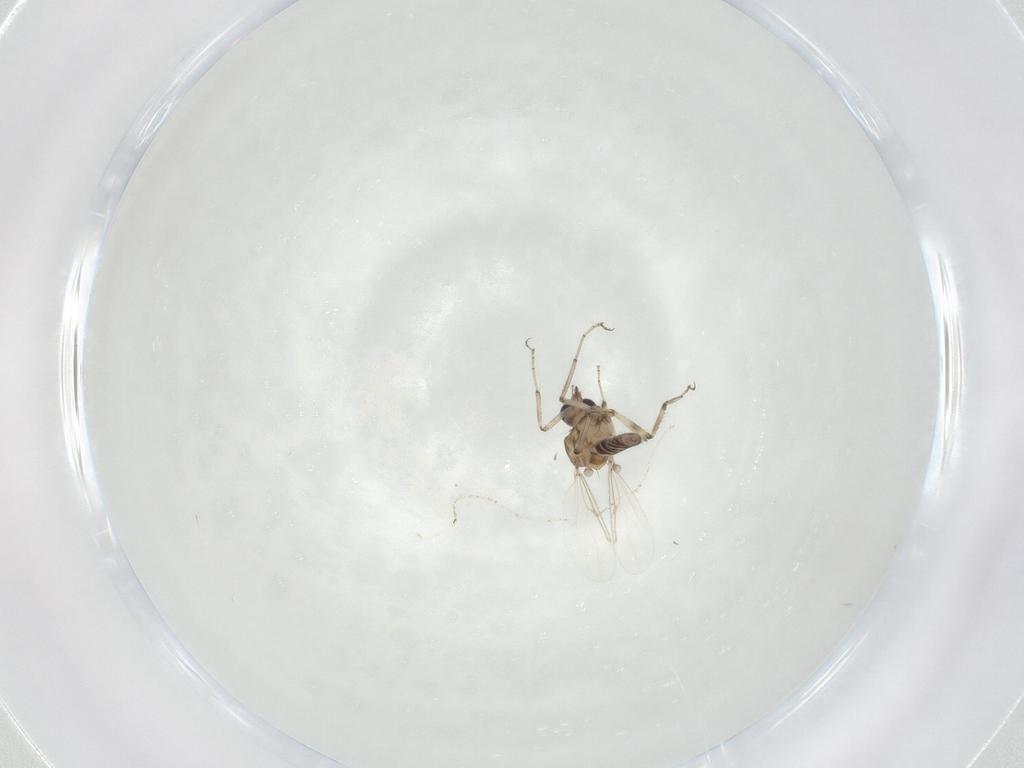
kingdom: Animalia
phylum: Arthropoda
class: Insecta
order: Diptera
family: Ceratopogonidae
